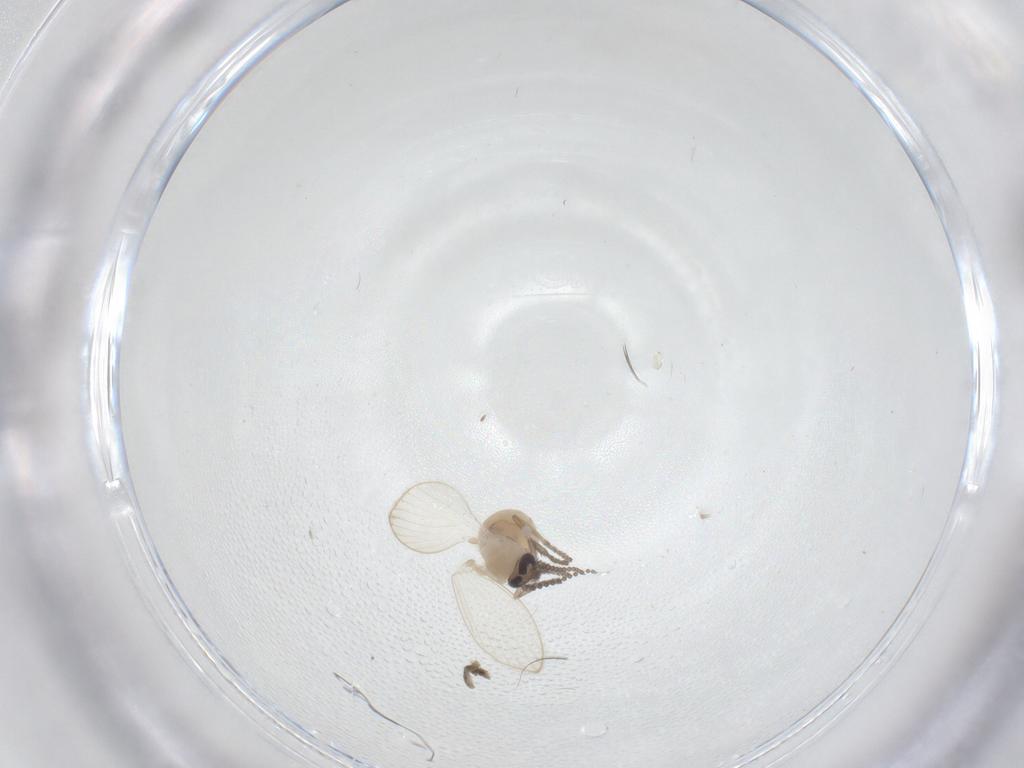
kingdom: Animalia
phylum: Arthropoda
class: Insecta
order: Diptera
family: Psychodidae
